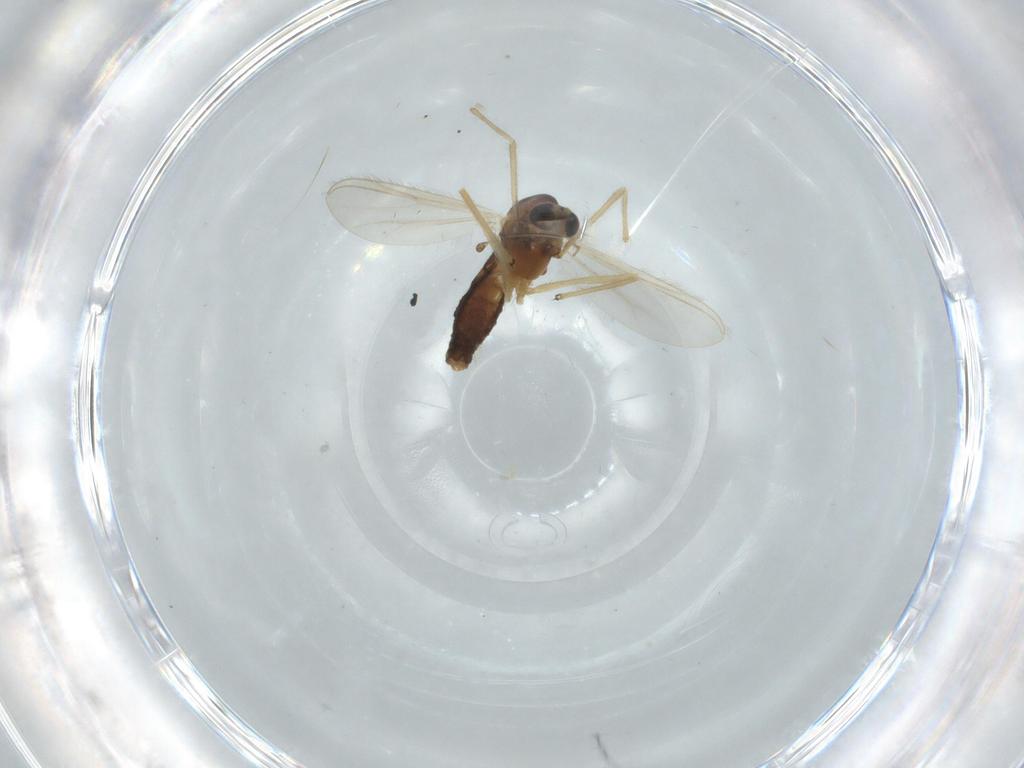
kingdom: Animalia
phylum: Arthropoda
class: Insecta
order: Diptera
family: Chironomidae
